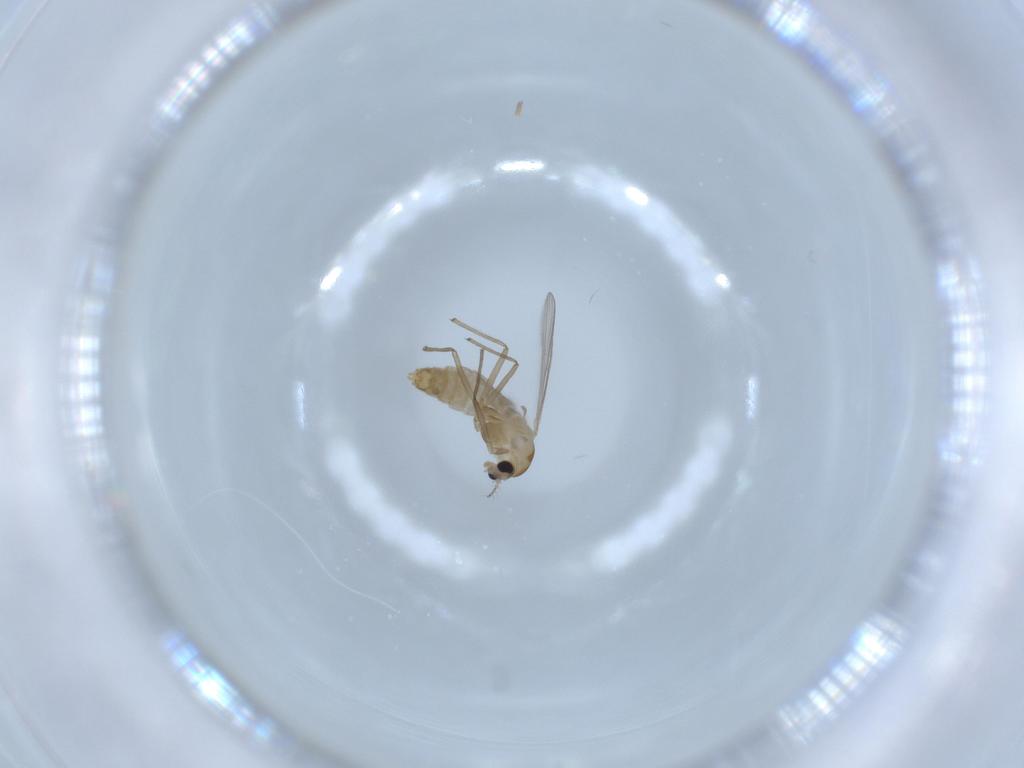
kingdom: Animalia
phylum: Arthropoda
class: Insecta
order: Diptera
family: Chironomidae
